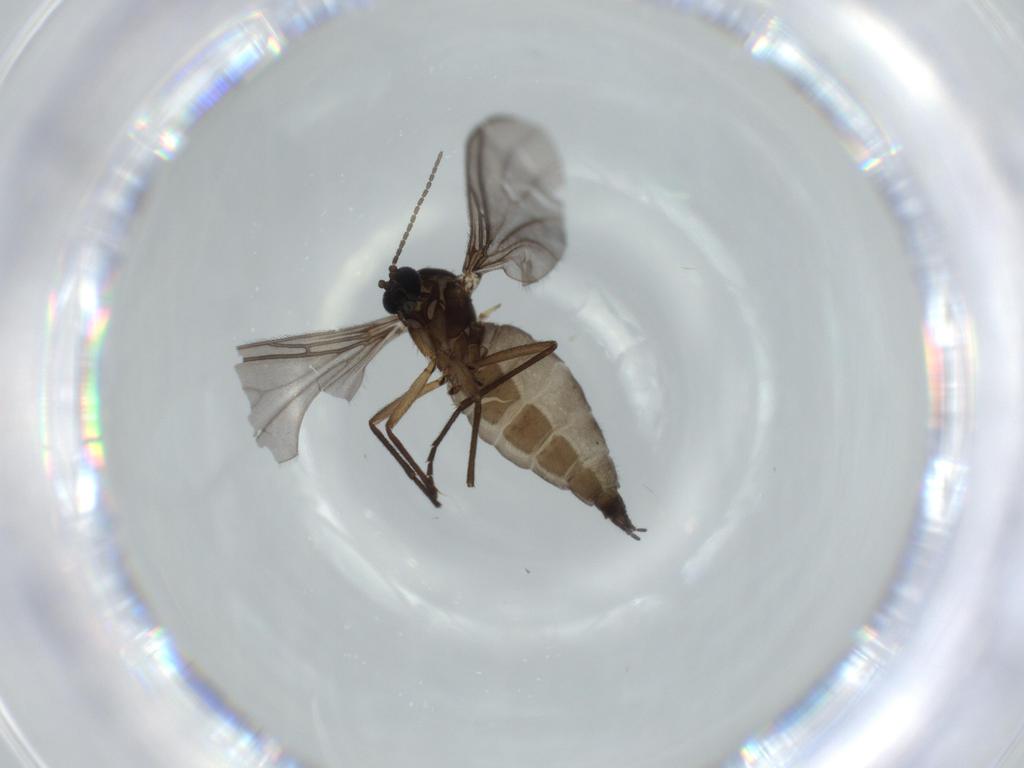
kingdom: Animalia
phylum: Arthropoda
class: Insecta
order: Diptera
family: Sciaridae
